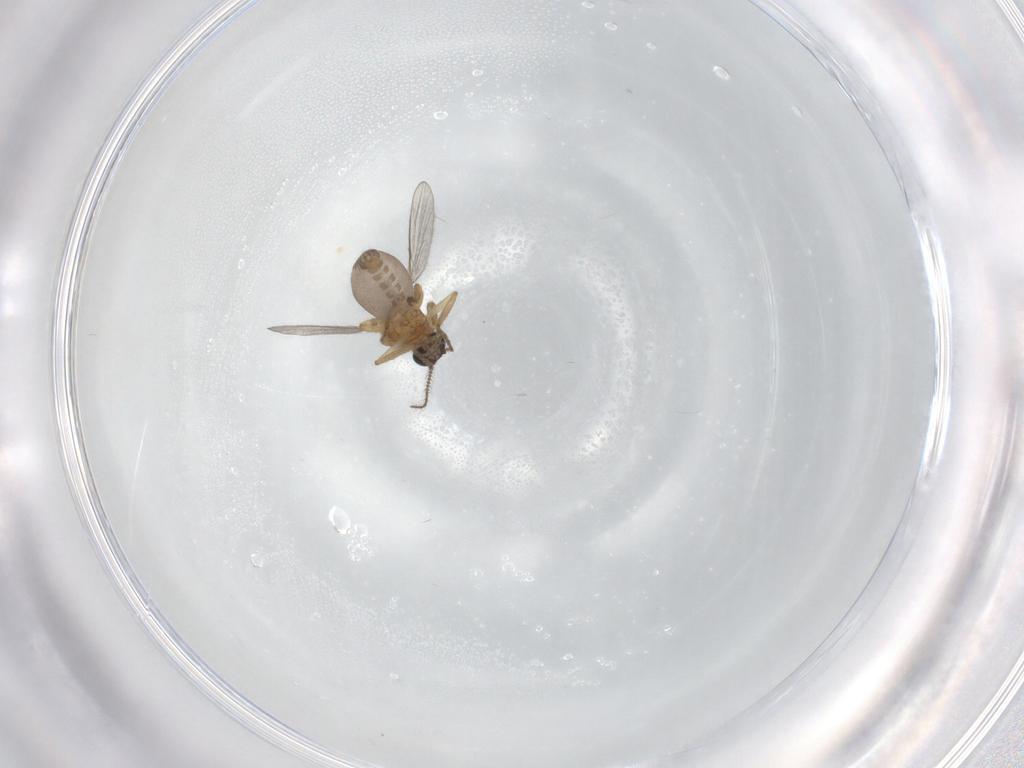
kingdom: Animalia
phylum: Arthropoda
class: Insecta
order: Diptera
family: Ceratopogonidae
